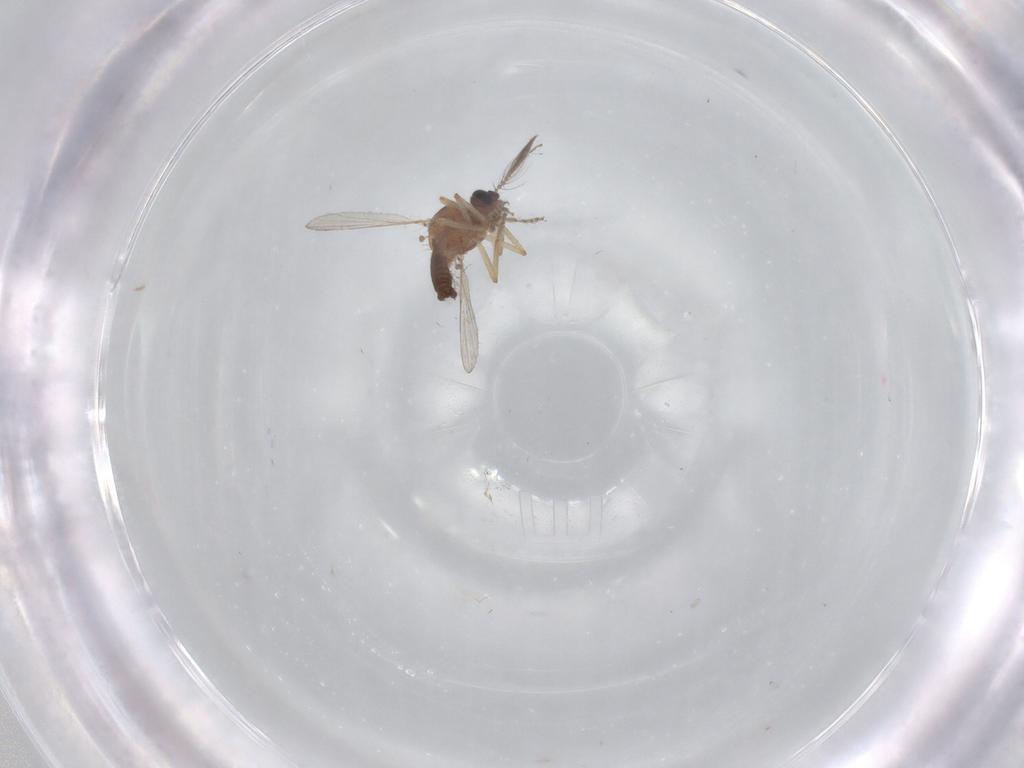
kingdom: Animalia
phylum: Arthropoda
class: Insecta
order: Diptera
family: Ceratopogonidae
